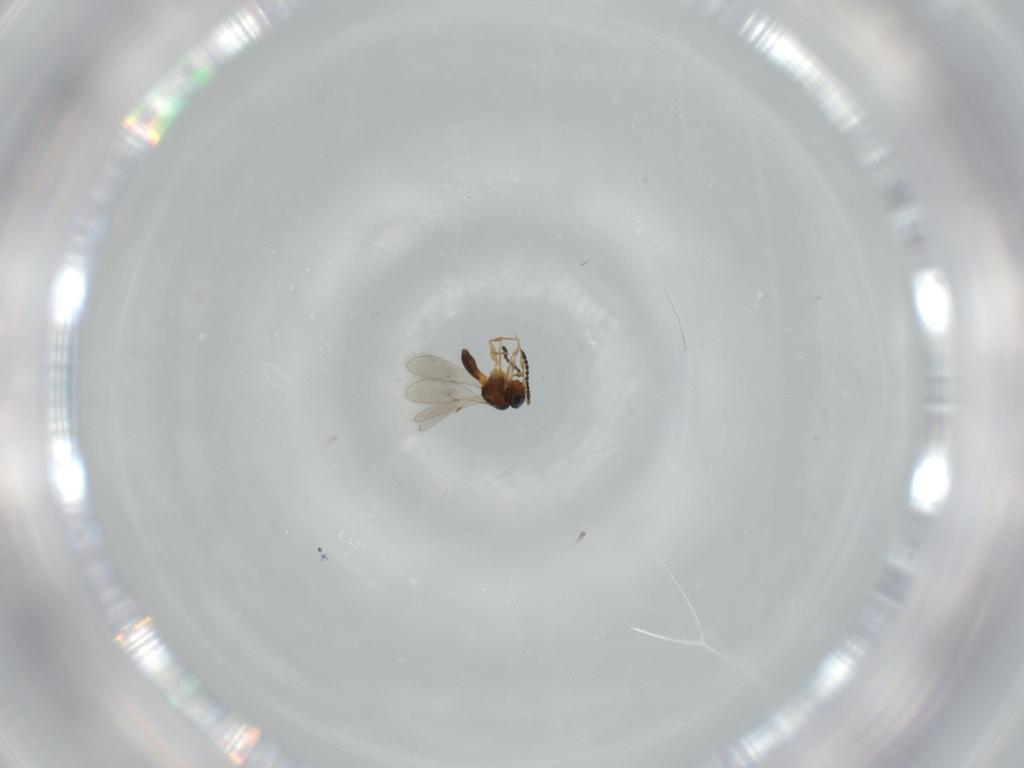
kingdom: Animalia
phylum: Arthropoda
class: Insecta
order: Hymenoptera
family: Scelionidae
